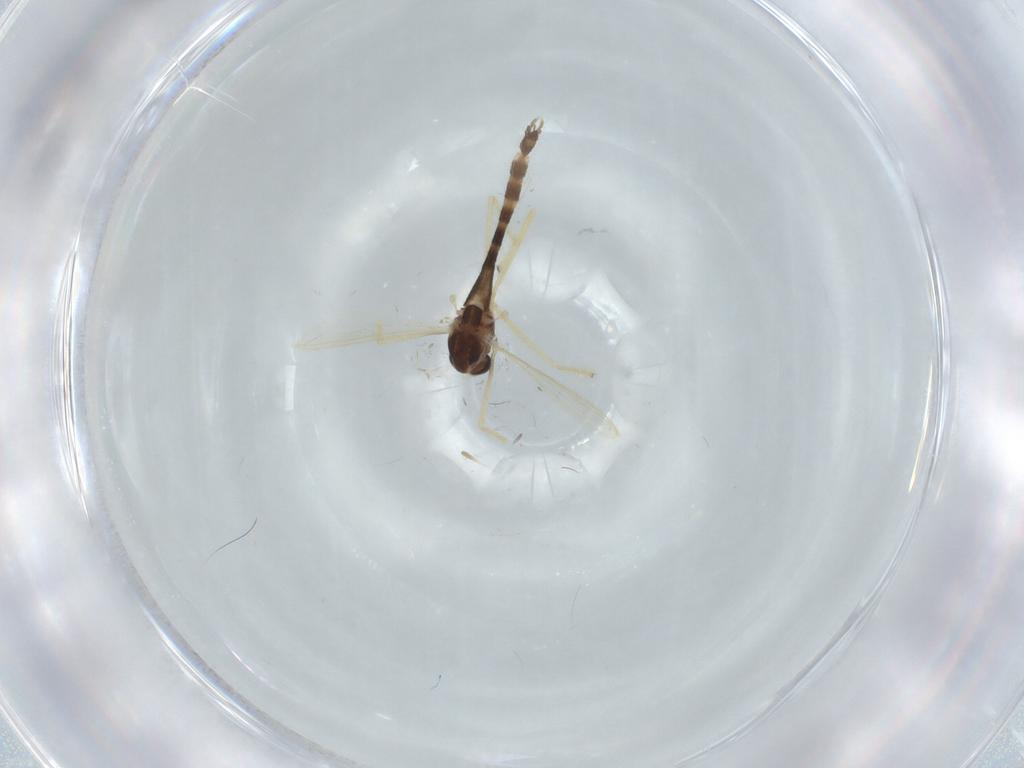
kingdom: Animalia
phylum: Arthropoda
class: Insecta
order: Diptera
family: Chironomidae
